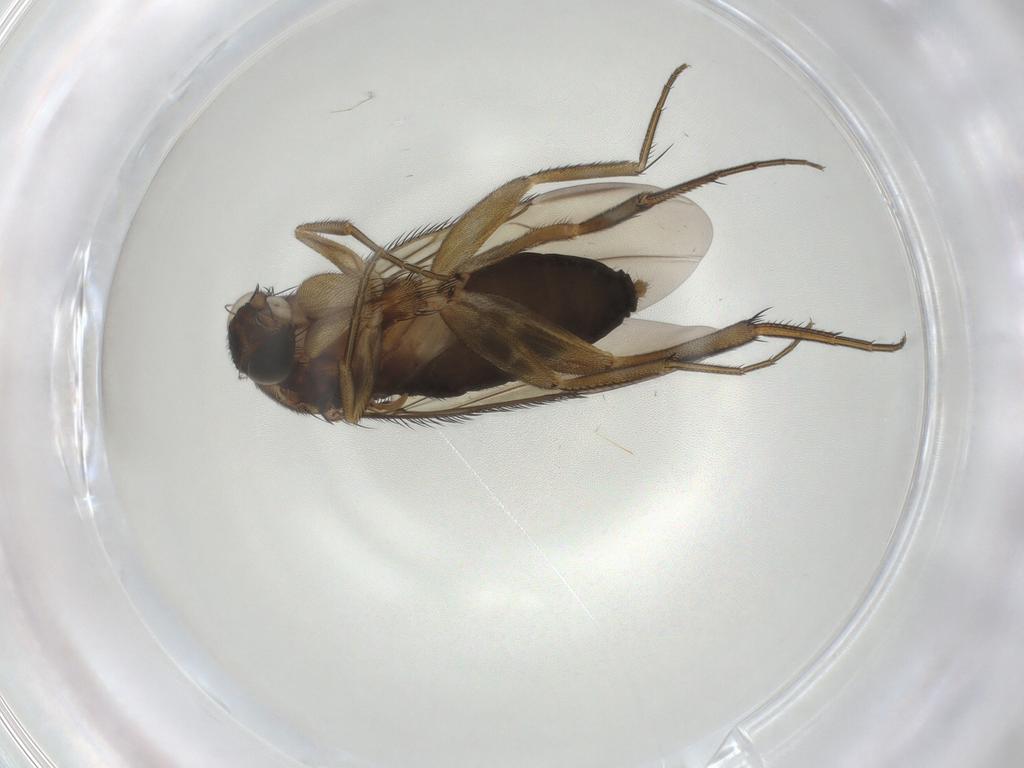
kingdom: Animalia
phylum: Arthropoda
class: Insecta
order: Diptera
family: Phoridae
